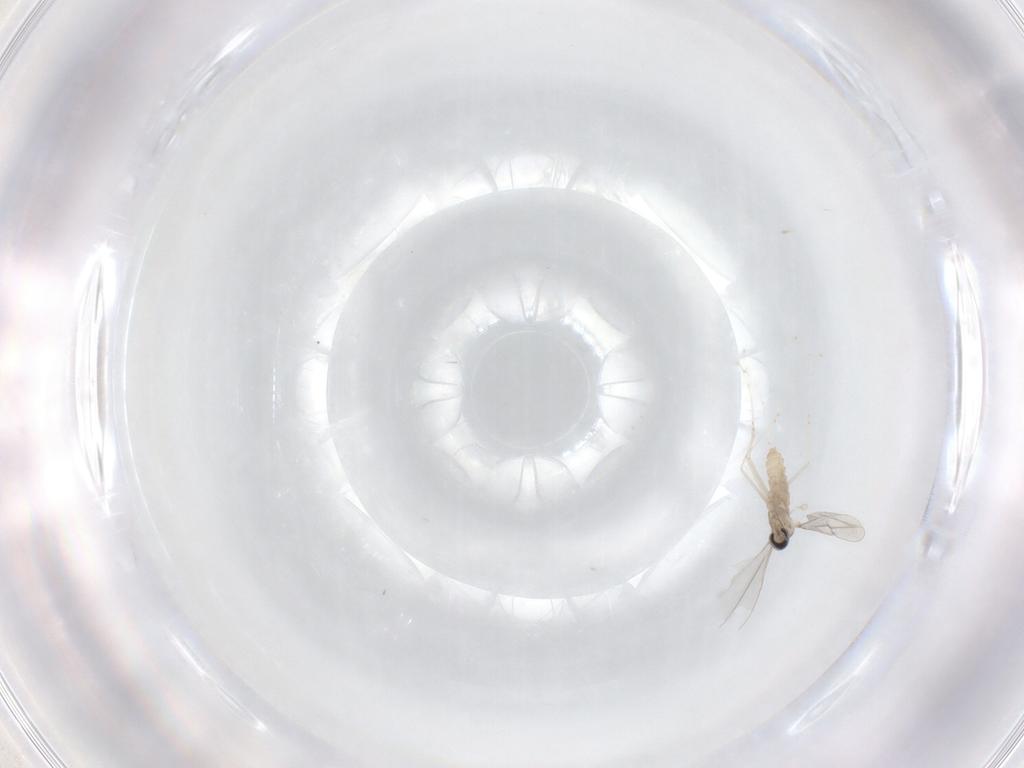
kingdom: Animalia
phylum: Arthropoda
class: Insecta
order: Diptera
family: Cecidomyiidae
